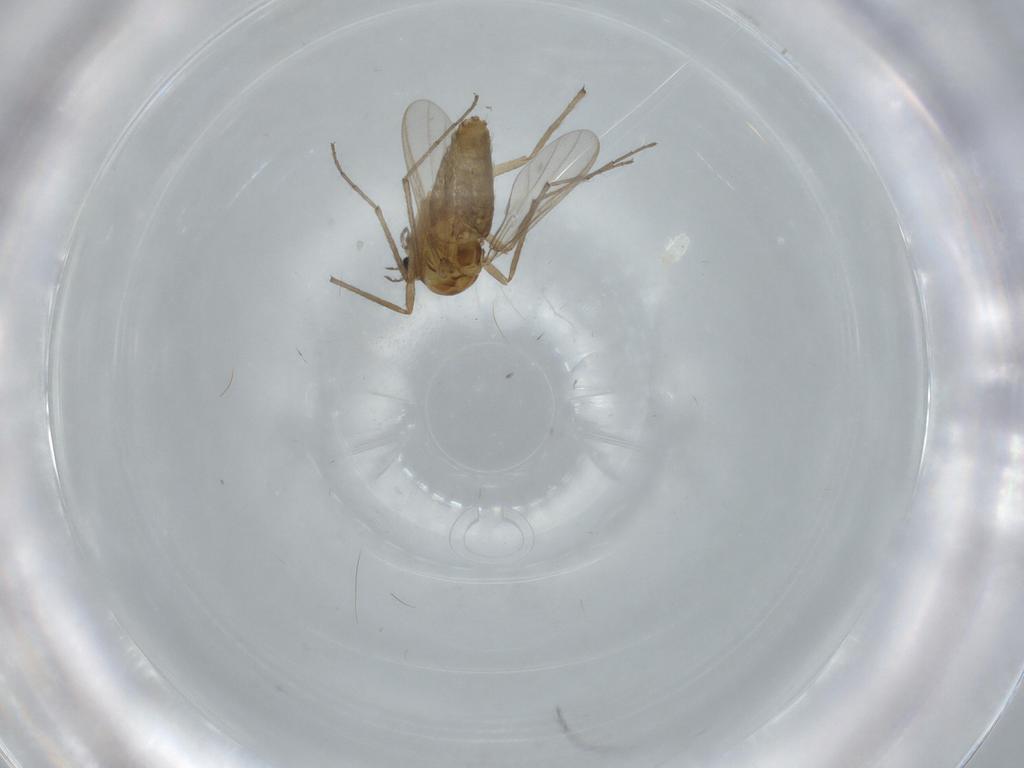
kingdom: Animalia
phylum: Arthropoda
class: Insecta
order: Diptera
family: Chironomidae
